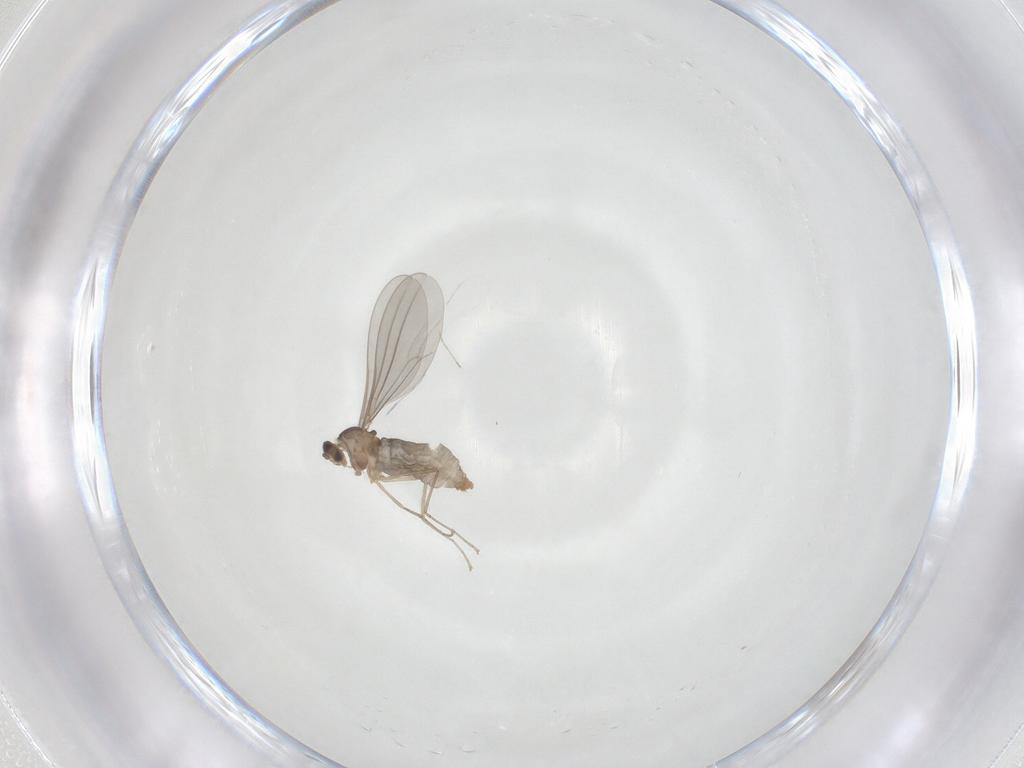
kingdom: Animalia
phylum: Arthropoda
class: Insecta
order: Diptera
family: Cecidomyiidae
